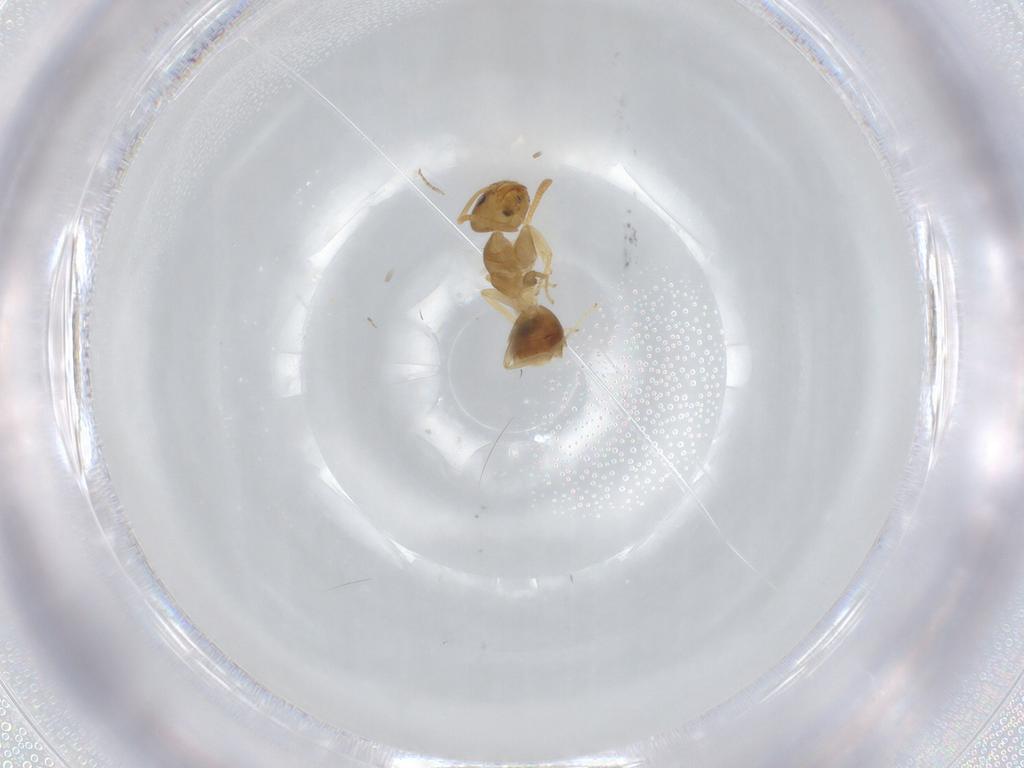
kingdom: Animalia
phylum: Arthropoda
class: Insecta
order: Hymenoptera
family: Formicidae
